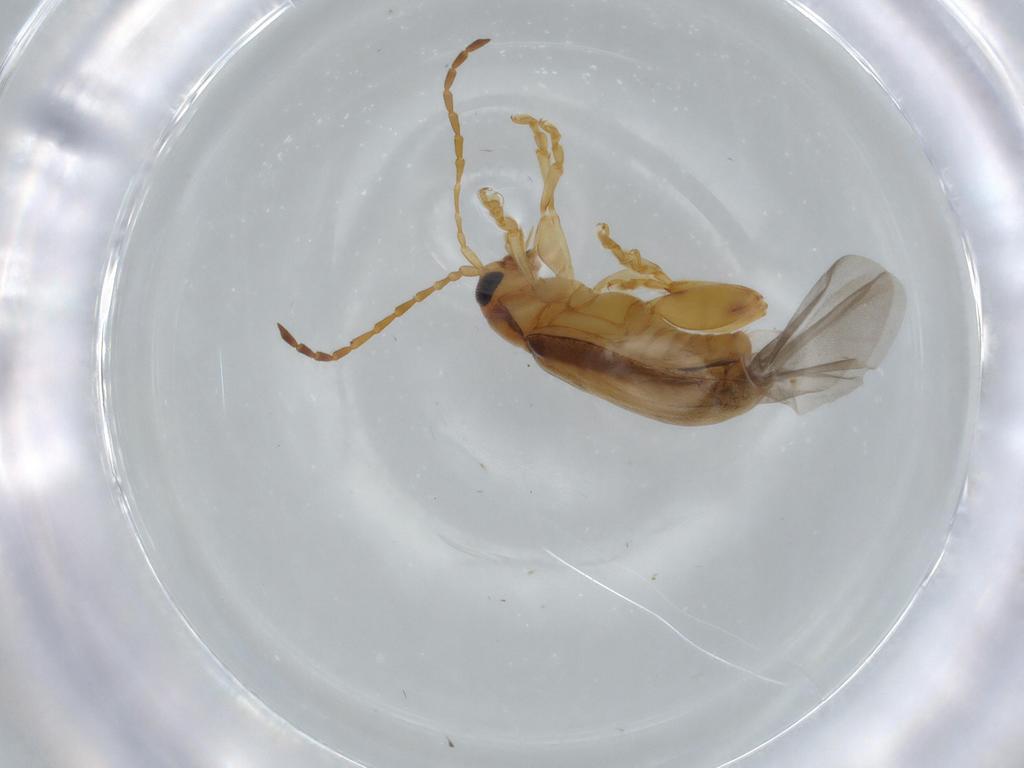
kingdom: Animalia
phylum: Arthropoda
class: Insecta
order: Coleoptera
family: Chrysomelidae
